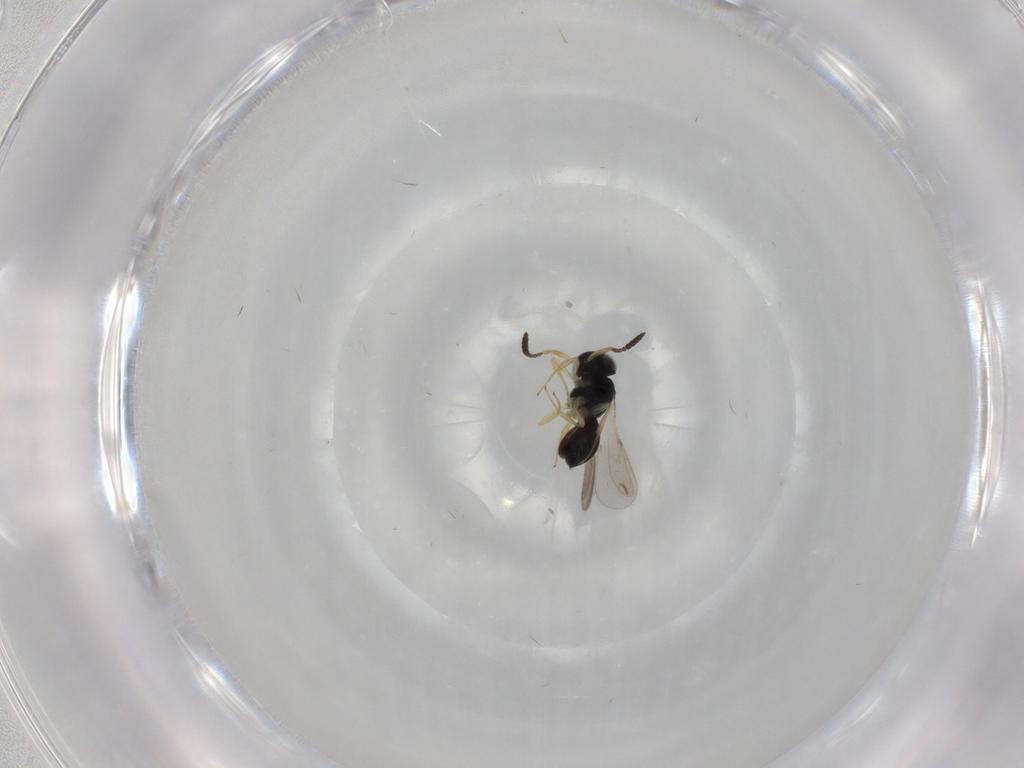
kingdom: Animalia
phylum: Arthropoda
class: Insecta
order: Hymenoptera
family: Scelionidae
